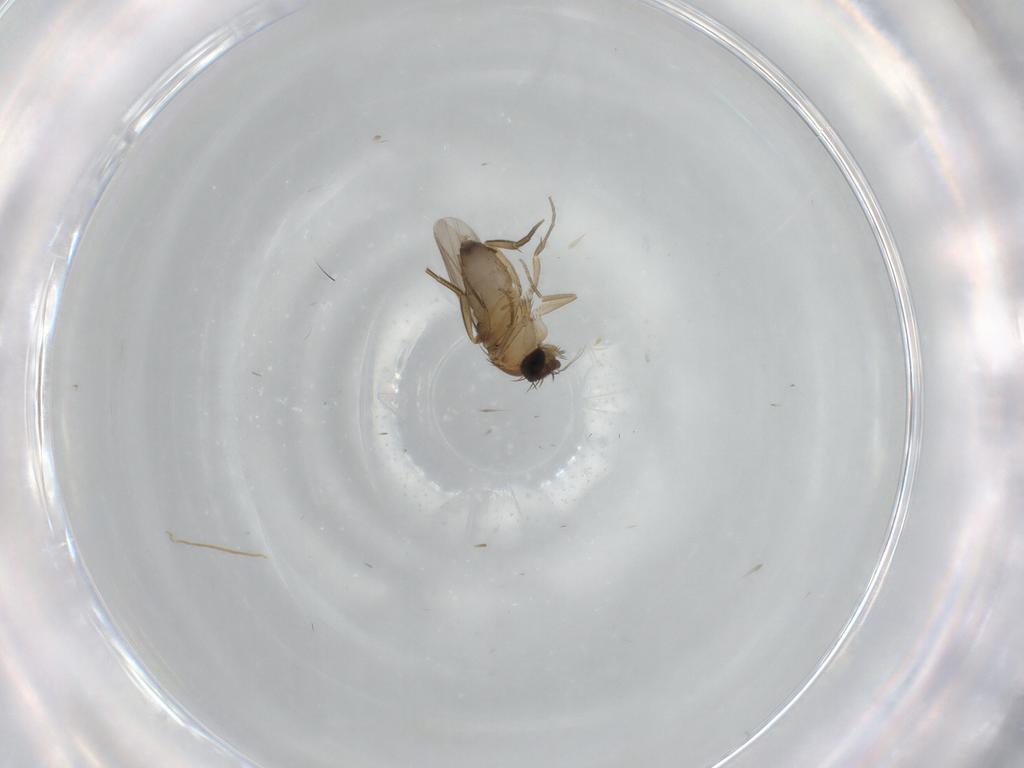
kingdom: Animalia
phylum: Arthropoda
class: Insecta
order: Diptera
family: Phoridae
